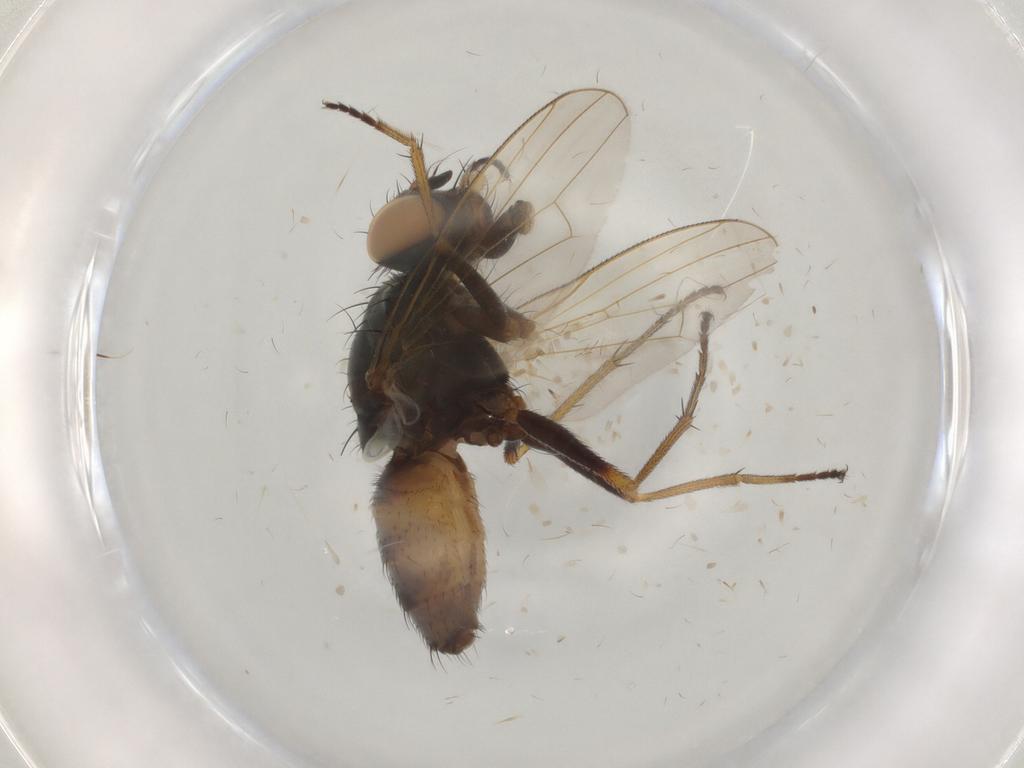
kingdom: Animalia
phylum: Arthropoda
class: Insecta
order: Diptera
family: Muscidae
